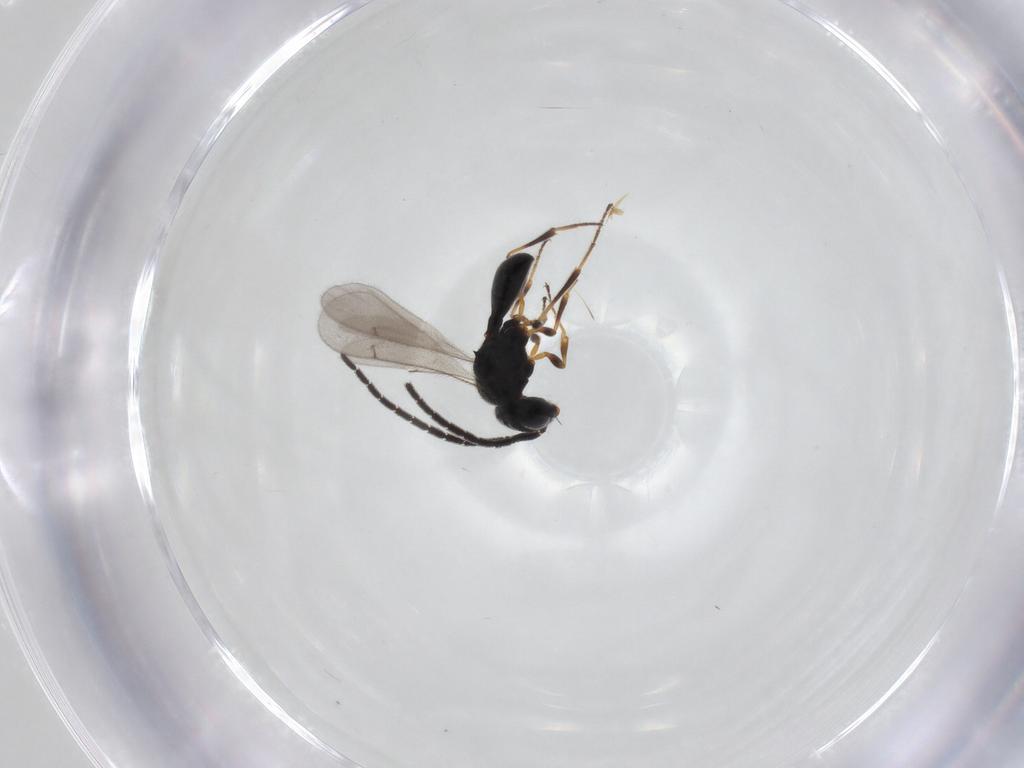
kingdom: Animalia
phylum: Arthropoda
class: Insecta
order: Hymenoptera
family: Scelionidae
